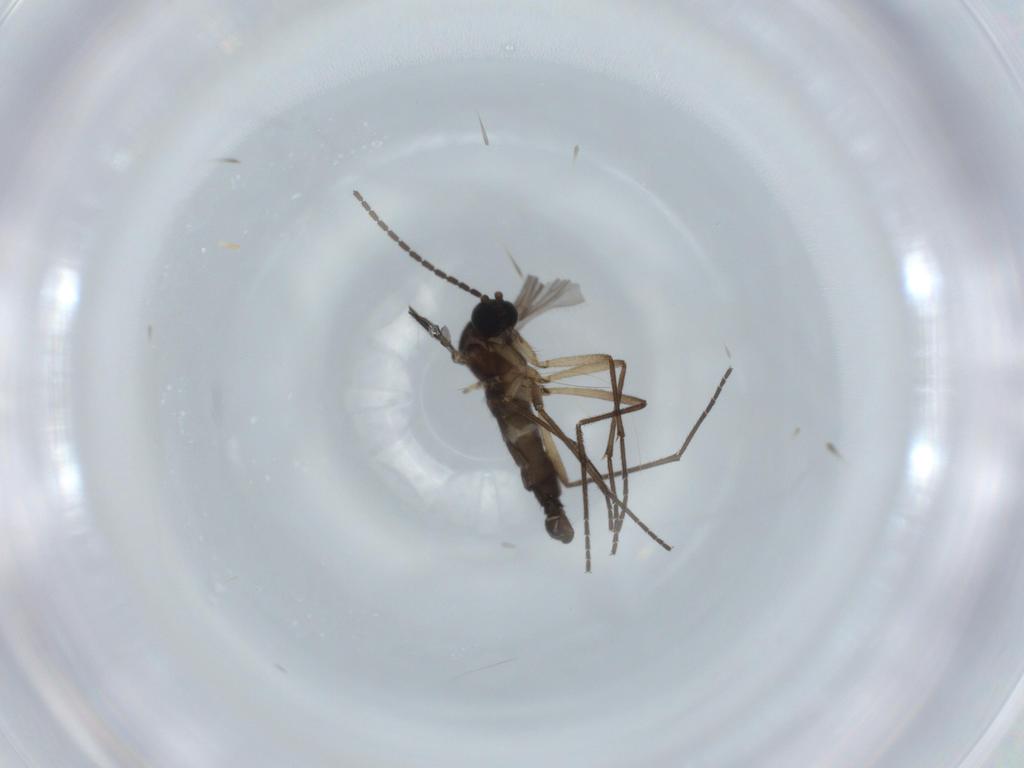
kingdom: Animalia
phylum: Arthropoda
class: Insecta
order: Diptera
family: Sciaridae
